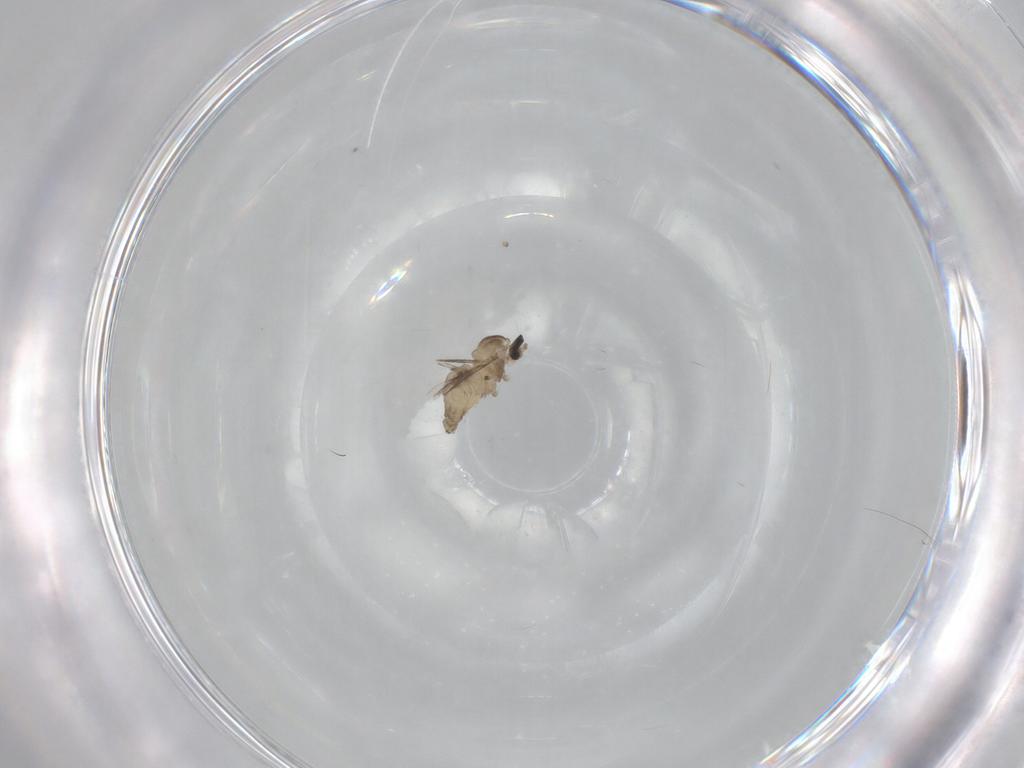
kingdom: Animalia
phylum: Arthropoda
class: Insecta
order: Diptera
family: Cecidomyiidae
